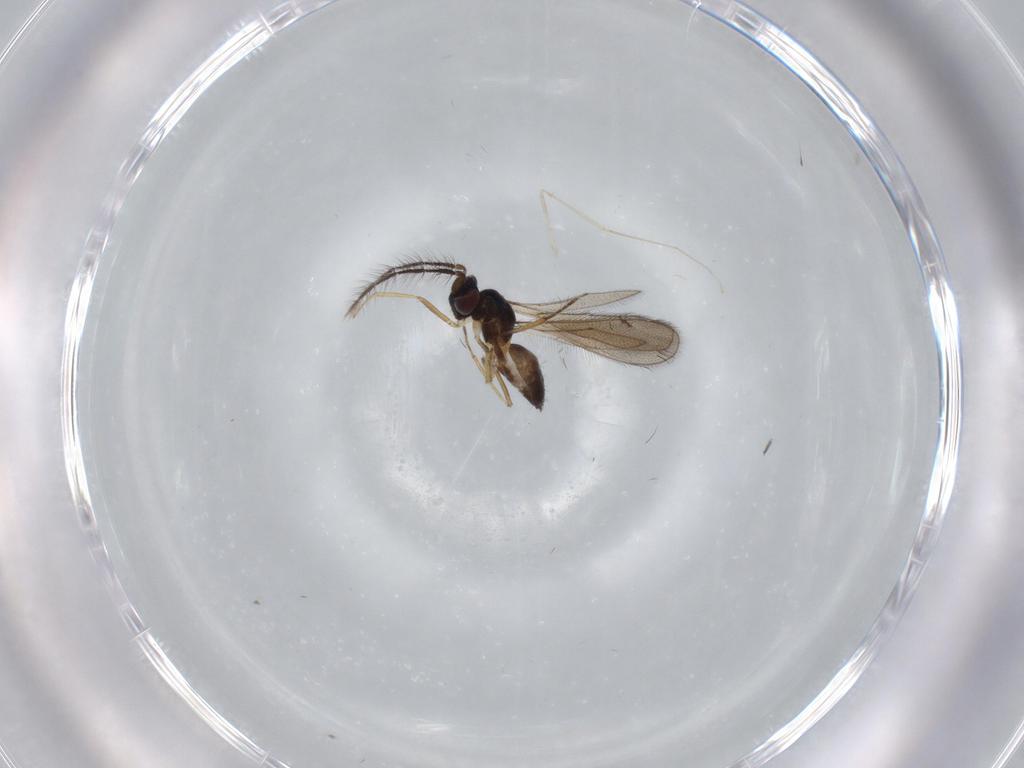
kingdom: Animalia
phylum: Arthropoda
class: Insecta
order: Hymenoptera
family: Eulophidae
